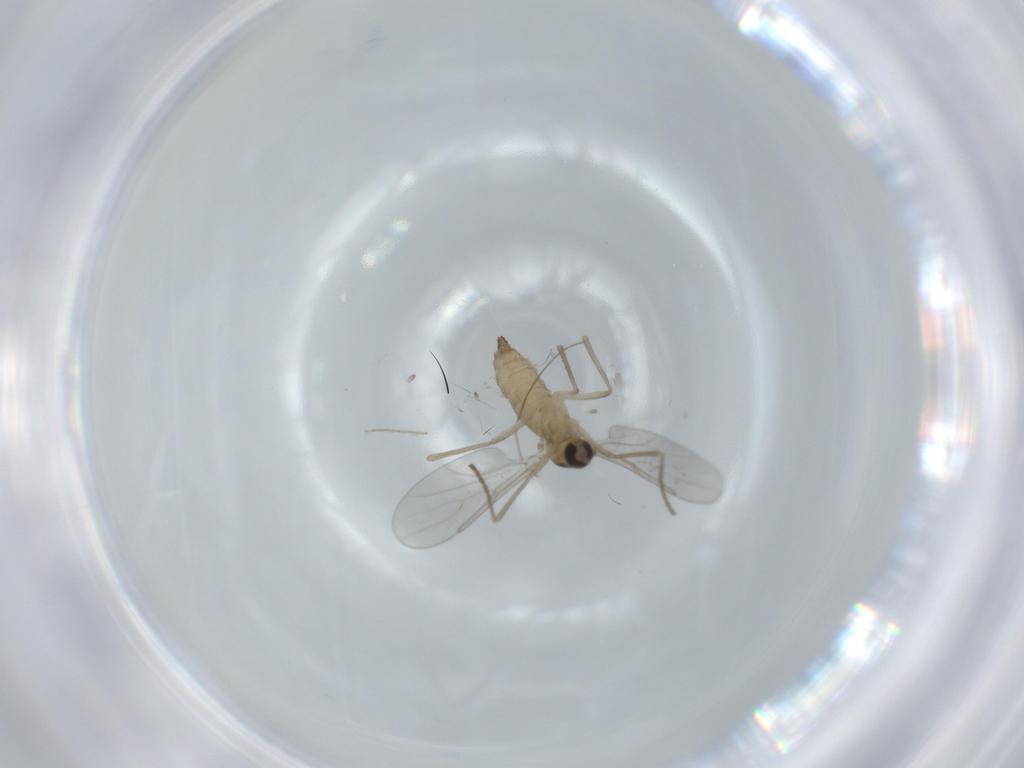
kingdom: Animalia
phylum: Arthropoda
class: Insecta
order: Diptera
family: Cecidomyiidae
